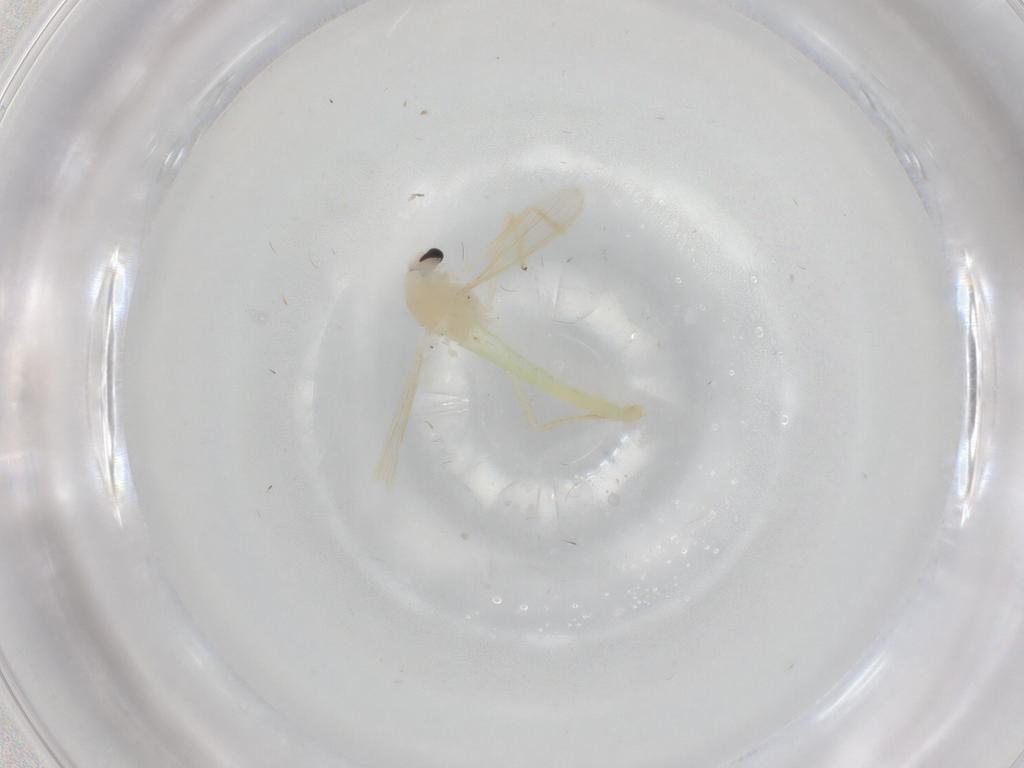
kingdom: Animalia
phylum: Arthropoda
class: Insecta
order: Diptera
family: Chironomidae
